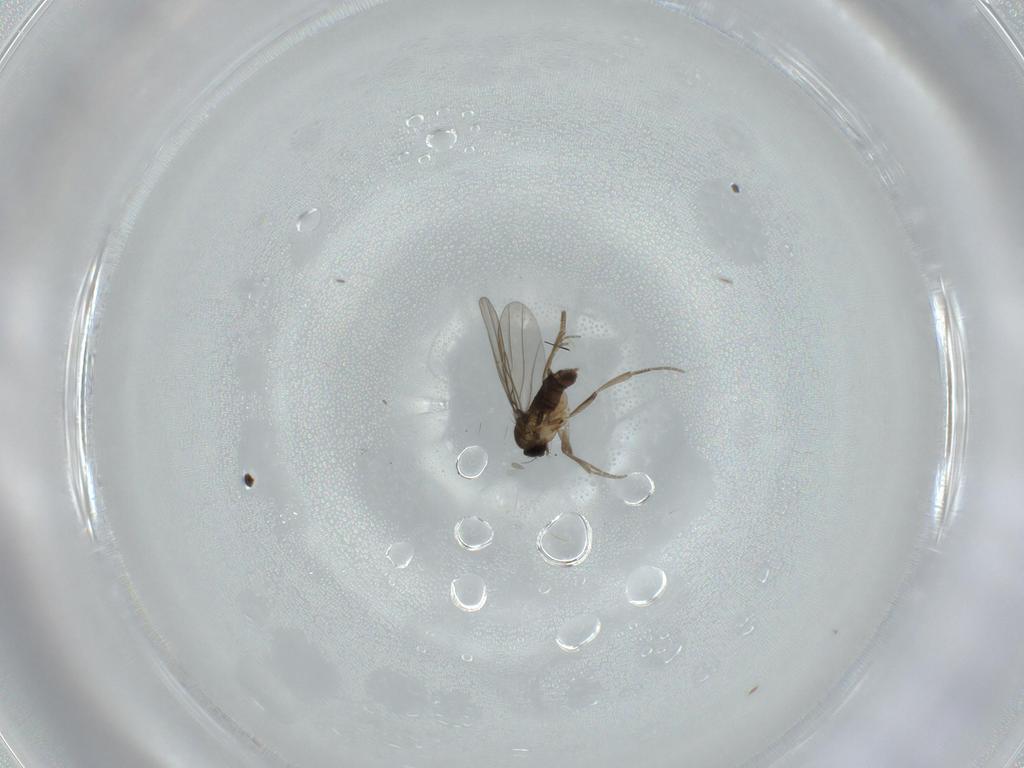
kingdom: Animalia
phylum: Arthropoda
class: Insecta
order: Diptera
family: Phoridae
